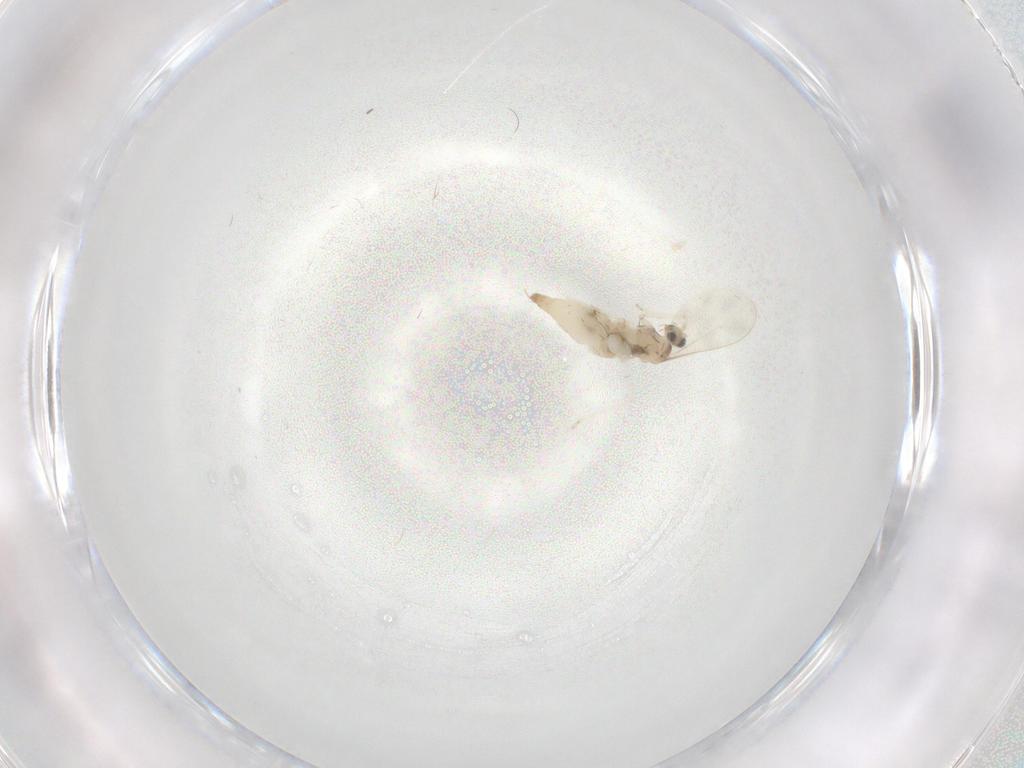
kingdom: Animalia
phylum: Arthropoda
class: Insecta
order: Diptera
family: Cecidomyiidae
